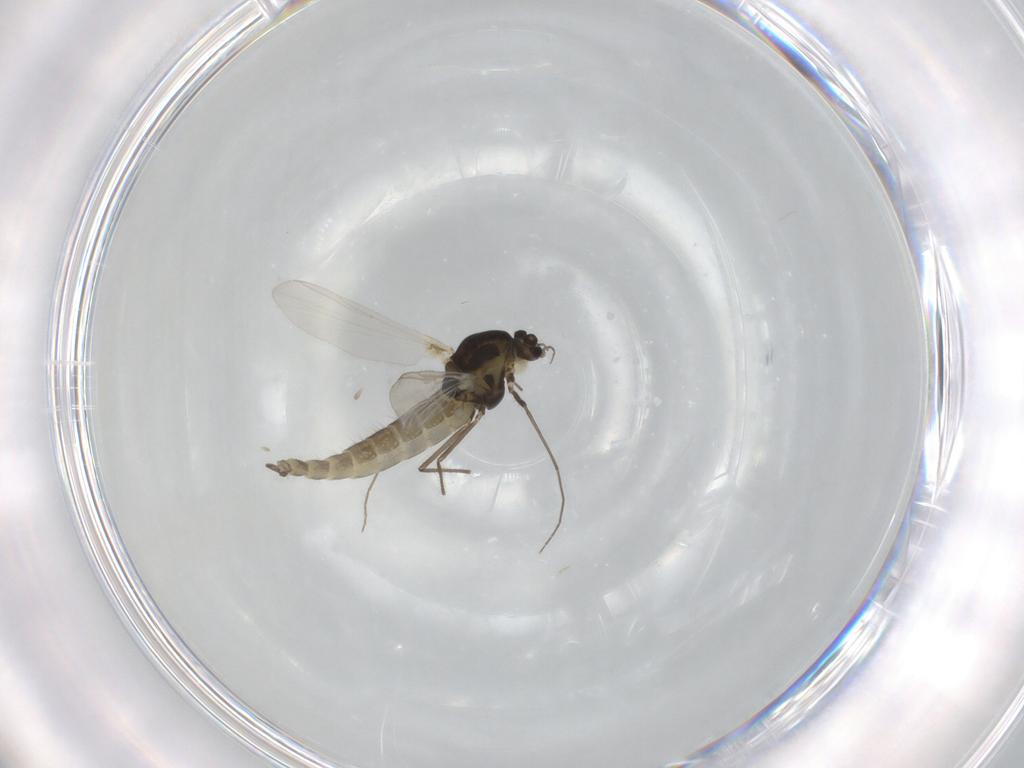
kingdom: Animalia
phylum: Arthropoda
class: Insecta
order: Diptera
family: Chironomidae
